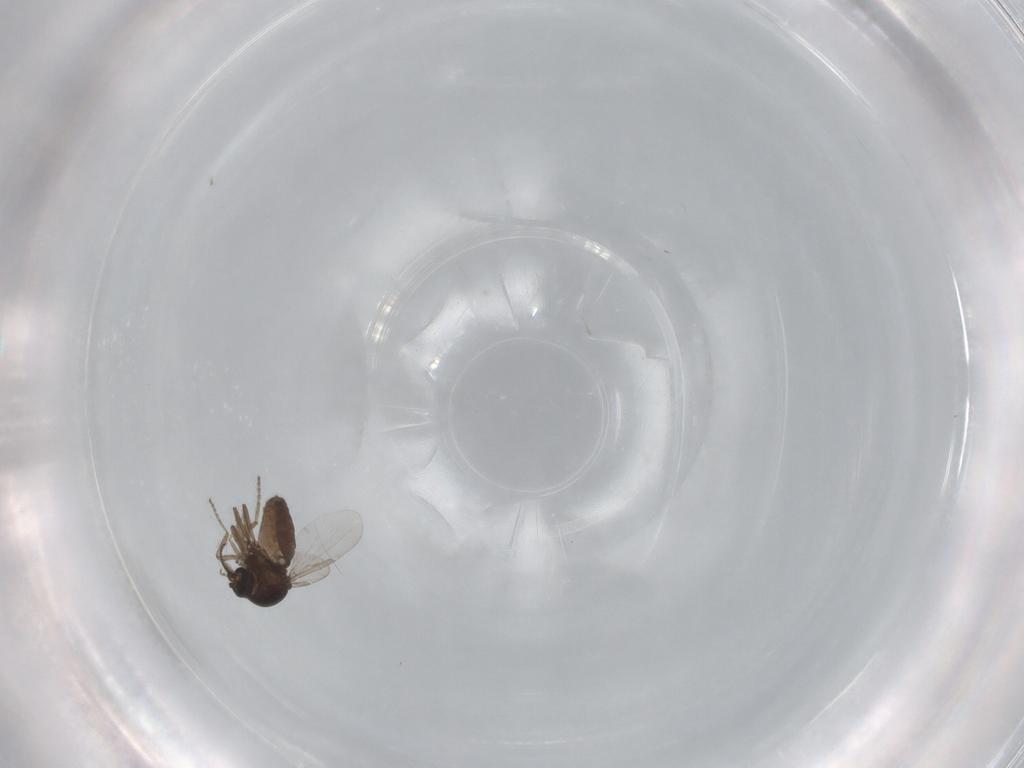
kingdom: Animalia
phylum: Arthropoda
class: Insecta
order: Diptera
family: Ceratopogonidae
